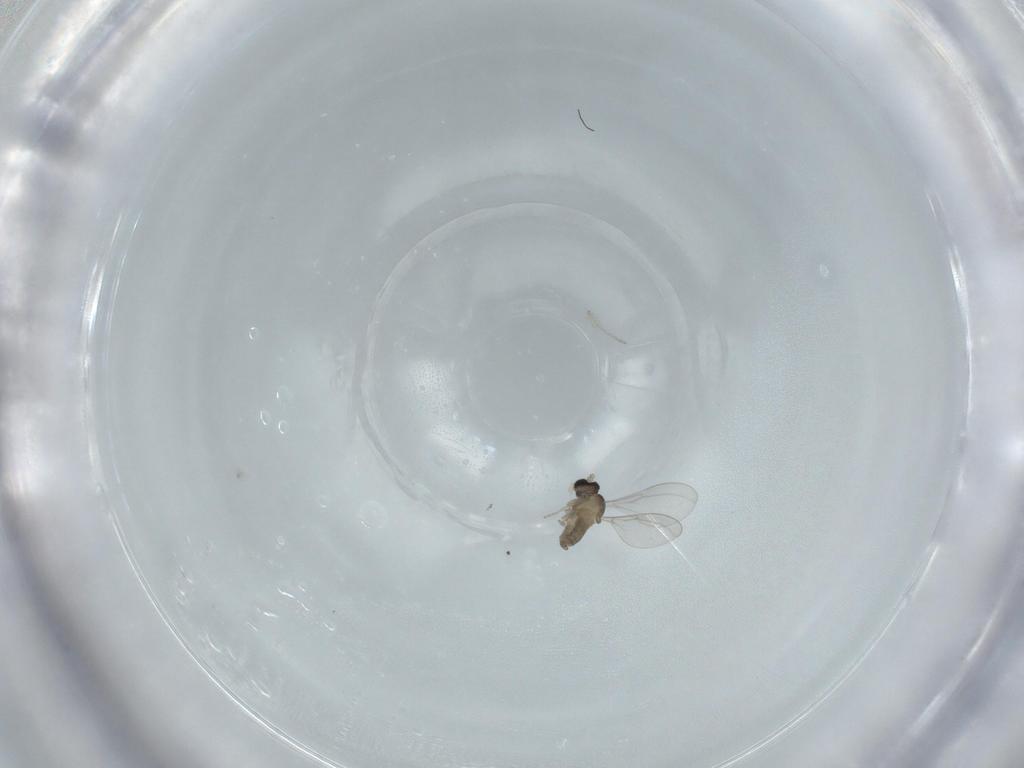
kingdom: Animalia
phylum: Arthropoda
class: Insecta
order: Diptera
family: Cecidomyiidae
